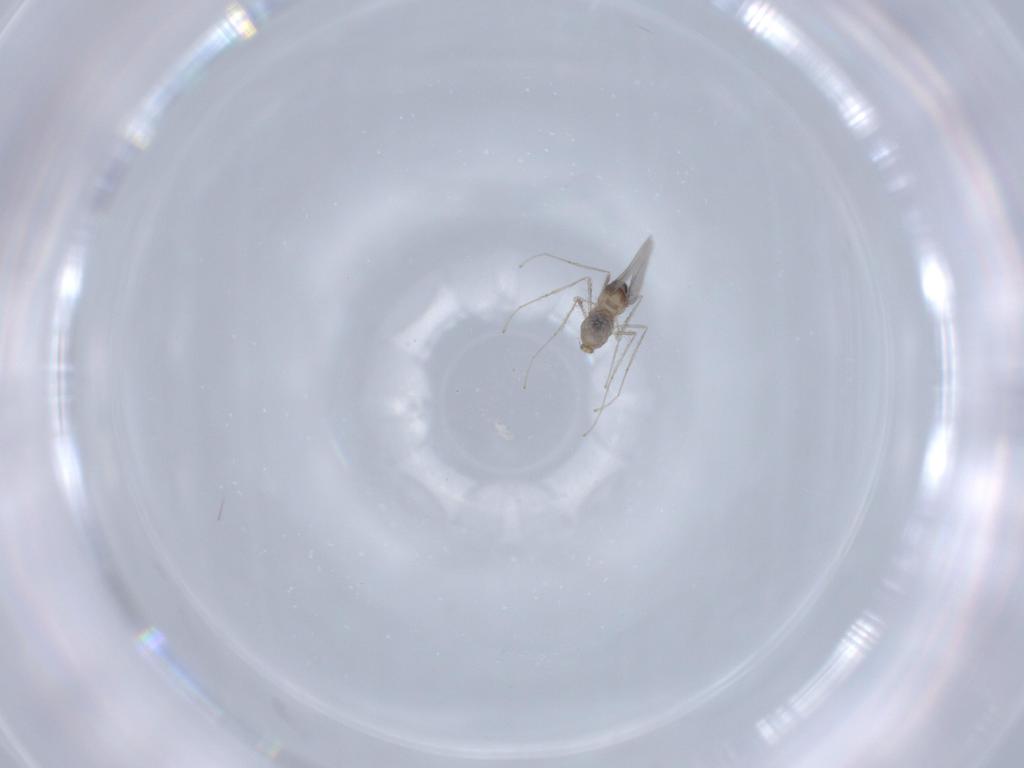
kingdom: Animalia
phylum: Arthropoda
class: Insecta
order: Diptera
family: Cecidomyiidae
